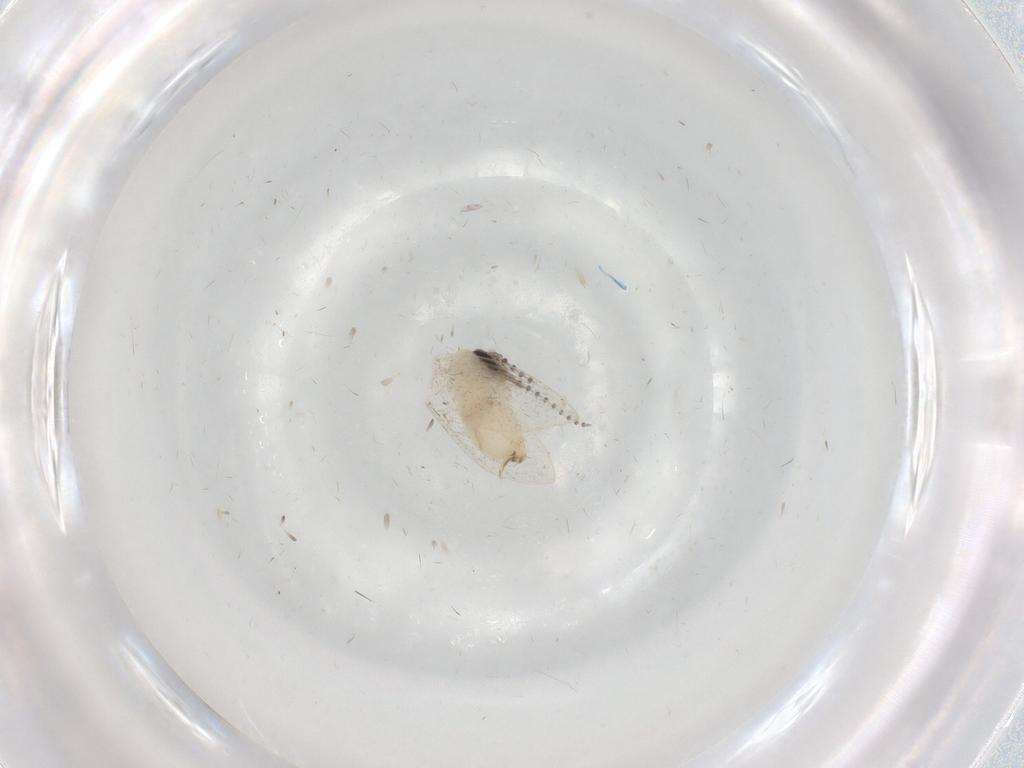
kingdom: Animalia
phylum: Arthropoda
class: Insecta
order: Diptera
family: Psychodidae
